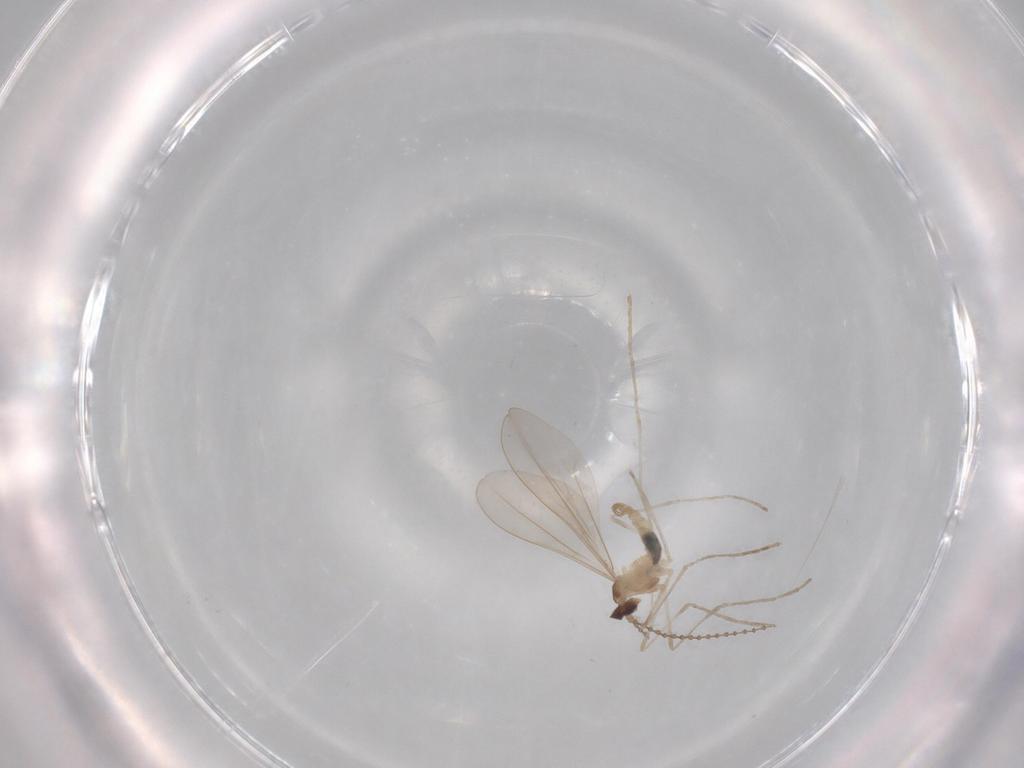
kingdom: Animalia
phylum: Arthropoda
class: Insecta
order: Diptera
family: Cecidomyiidae
